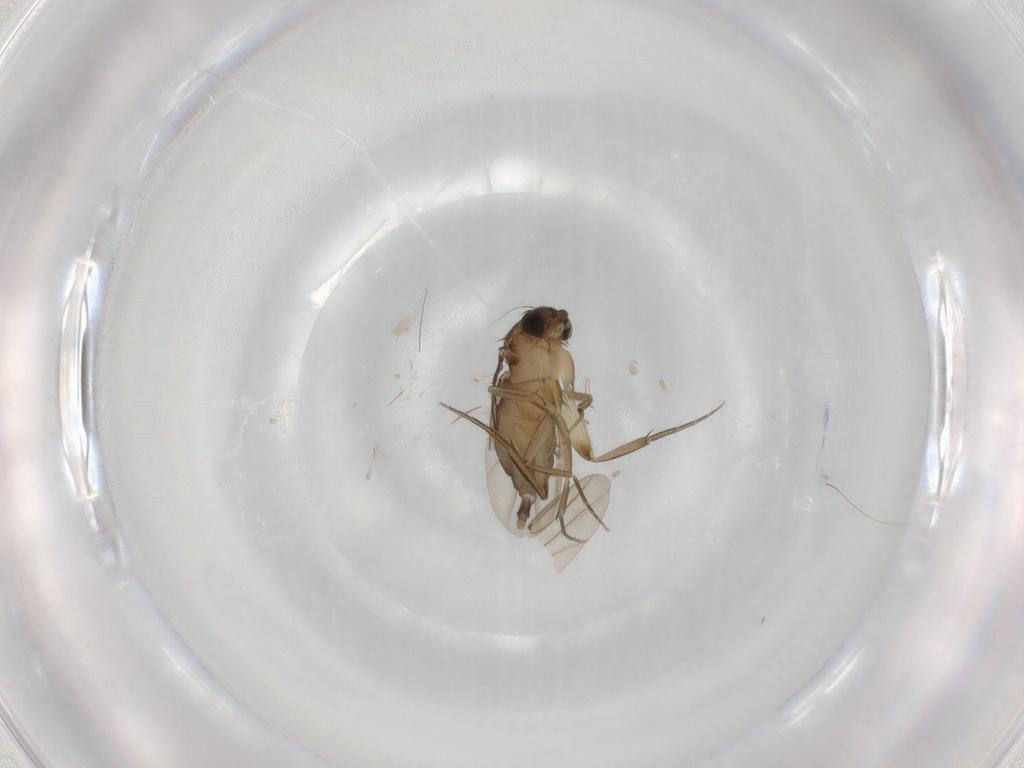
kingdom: Animalia
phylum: Arthropoda
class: Insecta
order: Diptera
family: Phoridae
